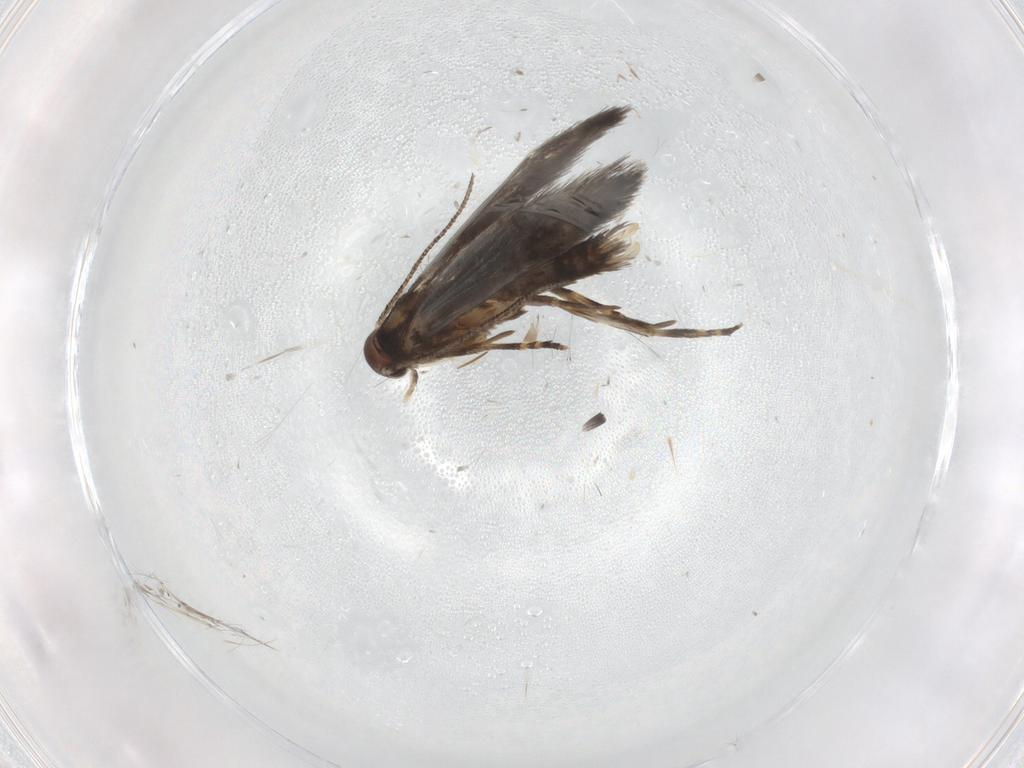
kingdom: Animalia
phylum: Arthropoda
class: Insecta
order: Lepidoptera
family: Elachistidae
